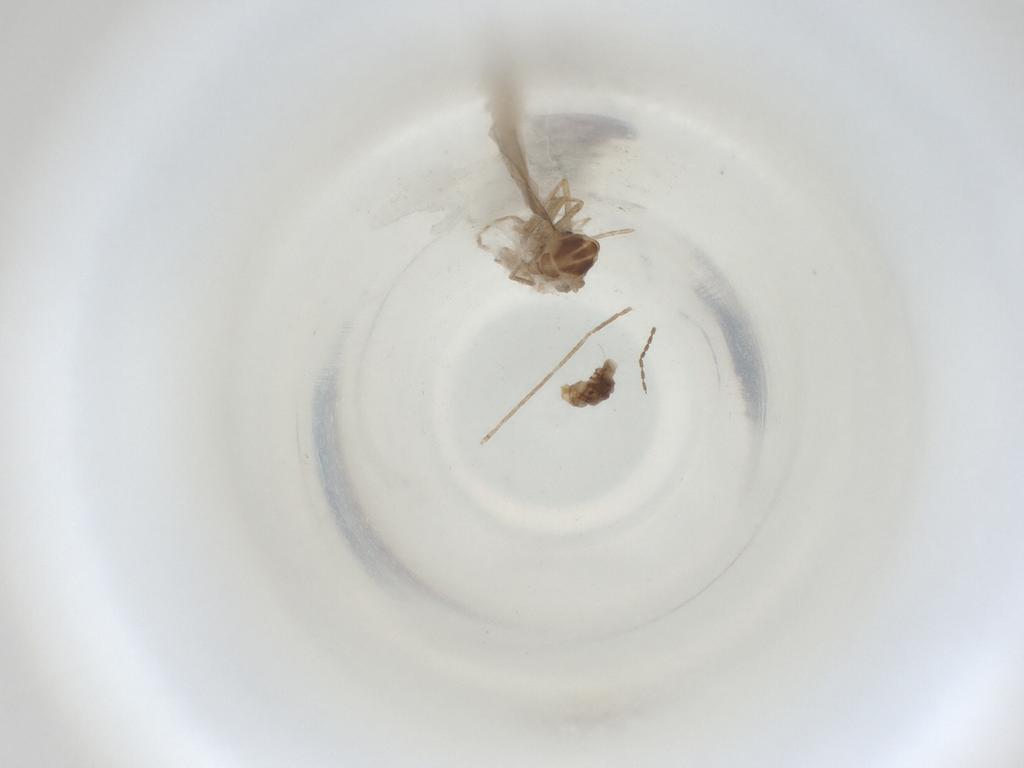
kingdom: Animalia
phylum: Arthropoda
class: Insecta
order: Diptera
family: Cecidomyiidae
